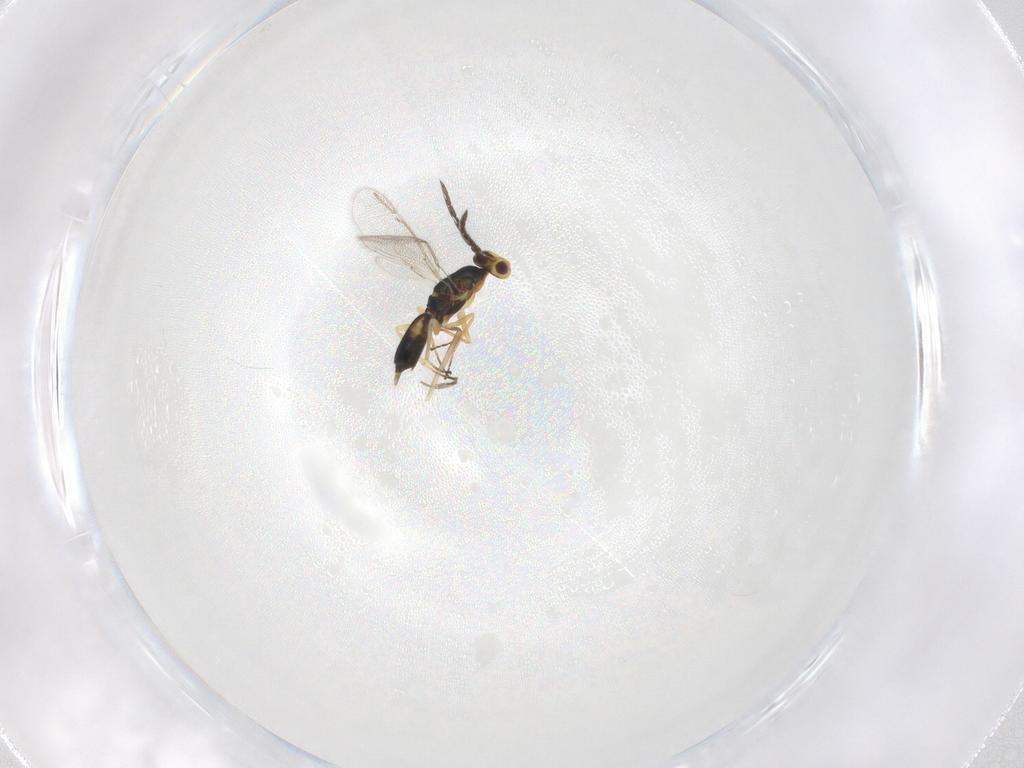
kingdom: Animalia
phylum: Arthropoda
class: Insecta
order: Hymenoptera
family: Eulophidae
